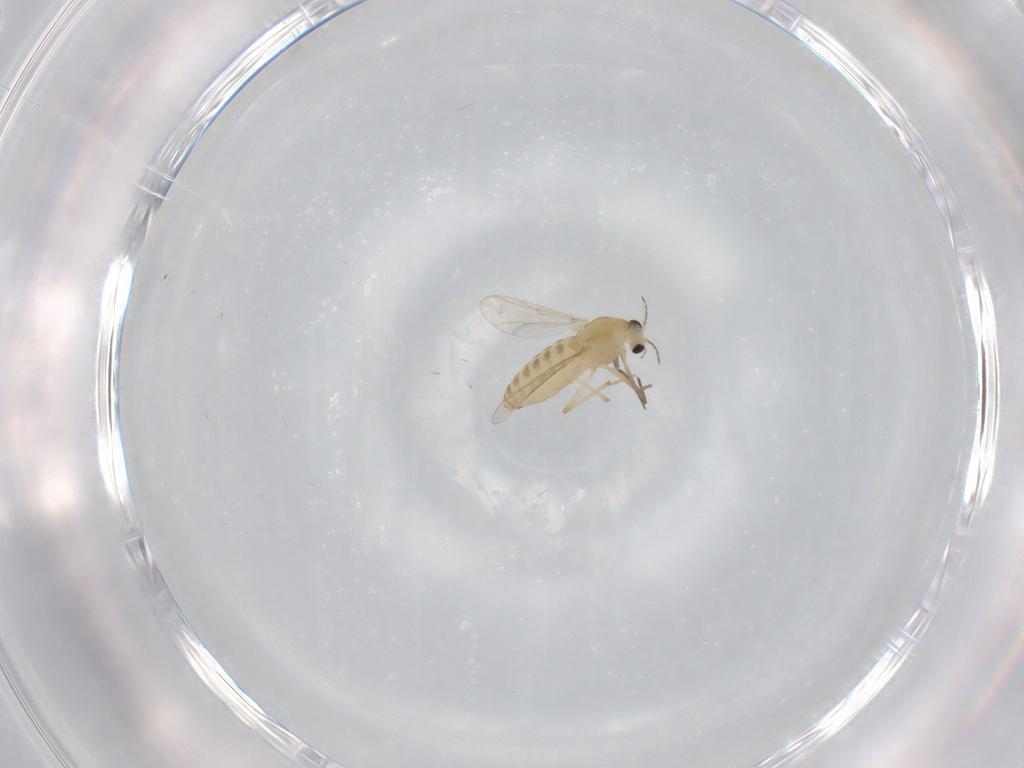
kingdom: Animalia
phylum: Arthropoda
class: Insecta
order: Diptera
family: Chironomidae
